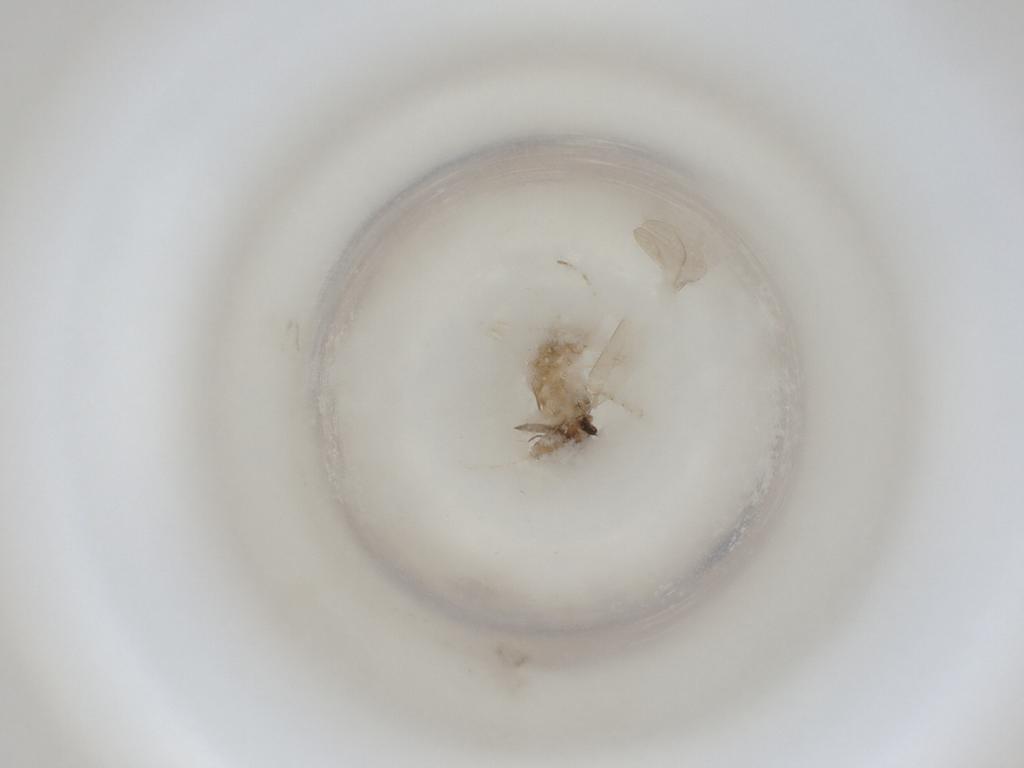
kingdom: Animalia
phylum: Arthropoda
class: Insecta
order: Diptera
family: Cecidomyiidae
